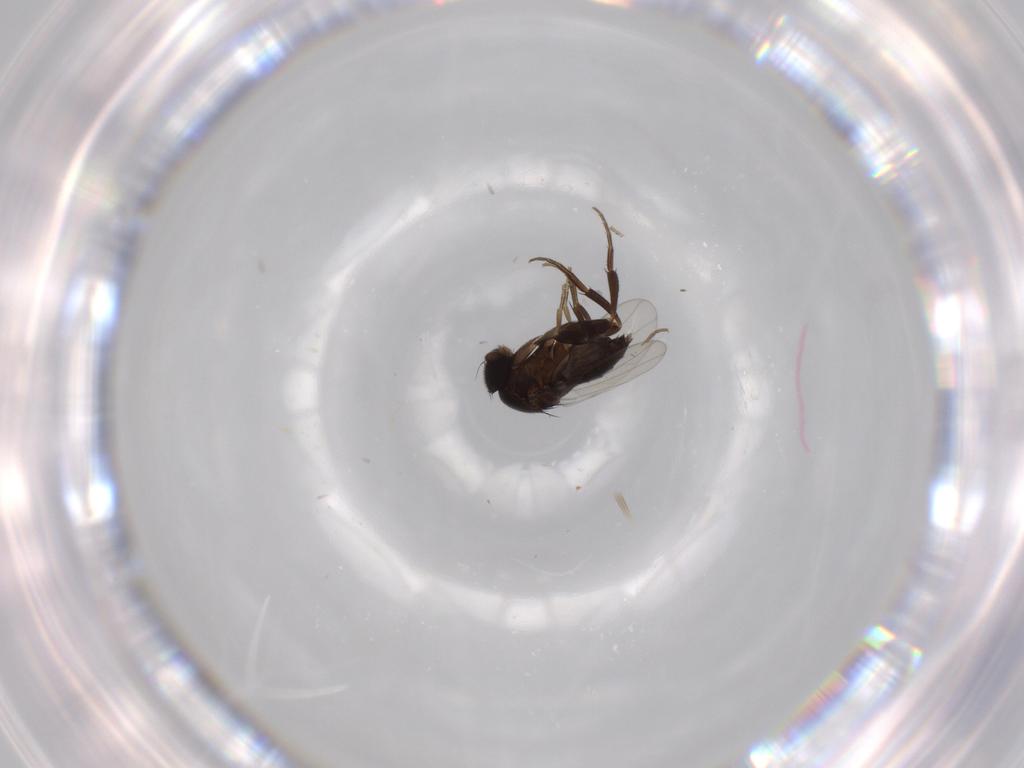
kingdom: Animalia
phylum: Arthropoda
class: Insecta
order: Diptera
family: Phoridae
